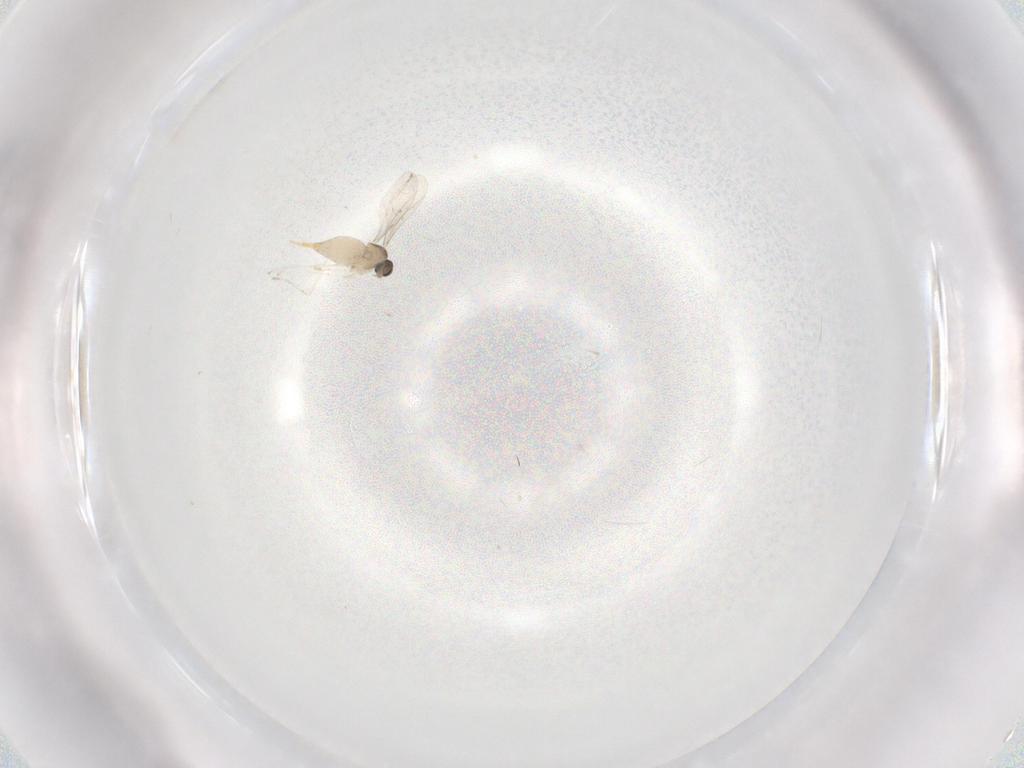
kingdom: Animalia
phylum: Arthropoda
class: Insecta
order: Diptera
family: Cecidomyiidae
